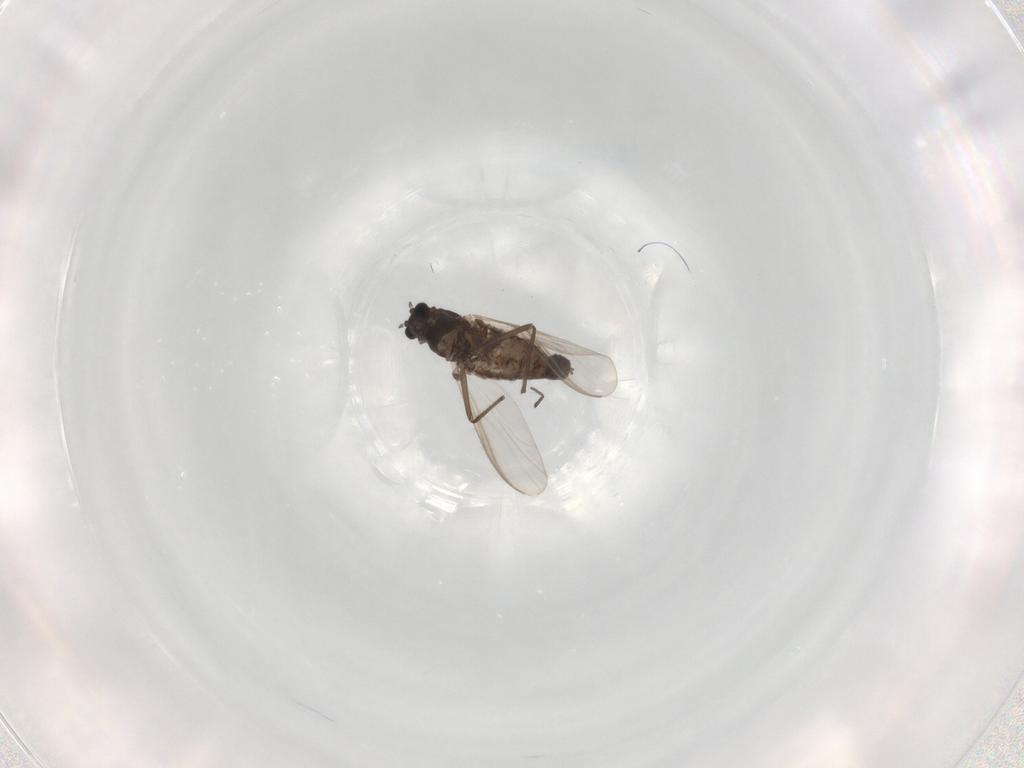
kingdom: Animalia
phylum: Arthropoda
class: Insecta
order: Diptera
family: Chironomidae
